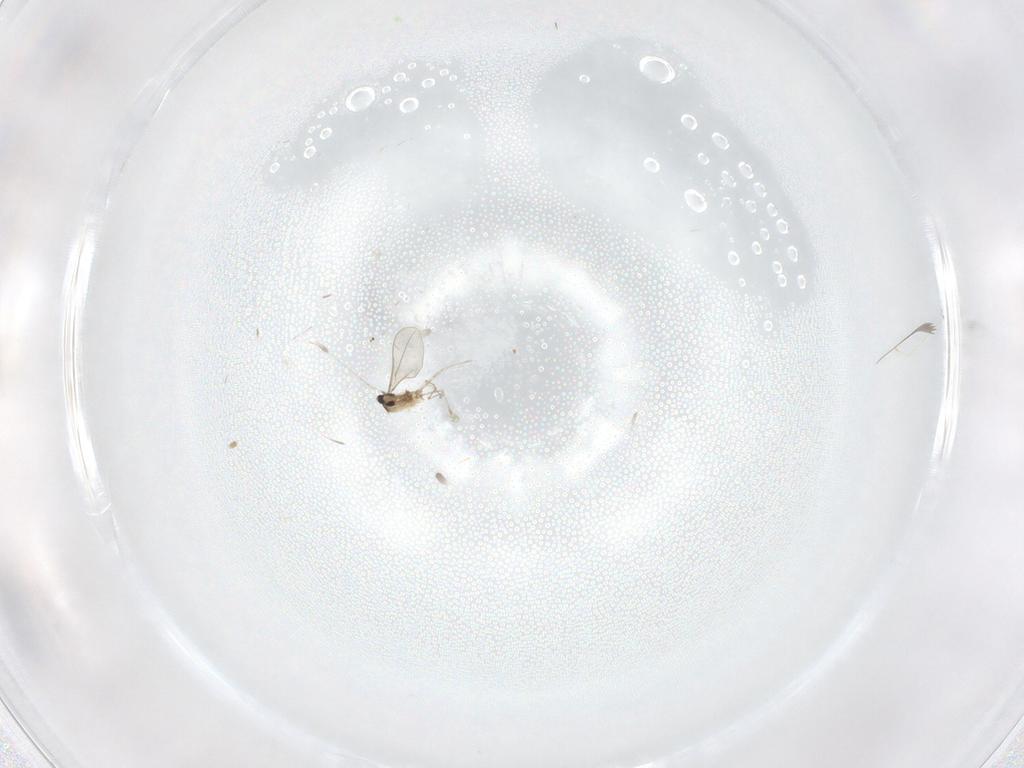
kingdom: Animalia
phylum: Arthropoda
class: Insecta
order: Diptera
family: Cecidomyiidae
